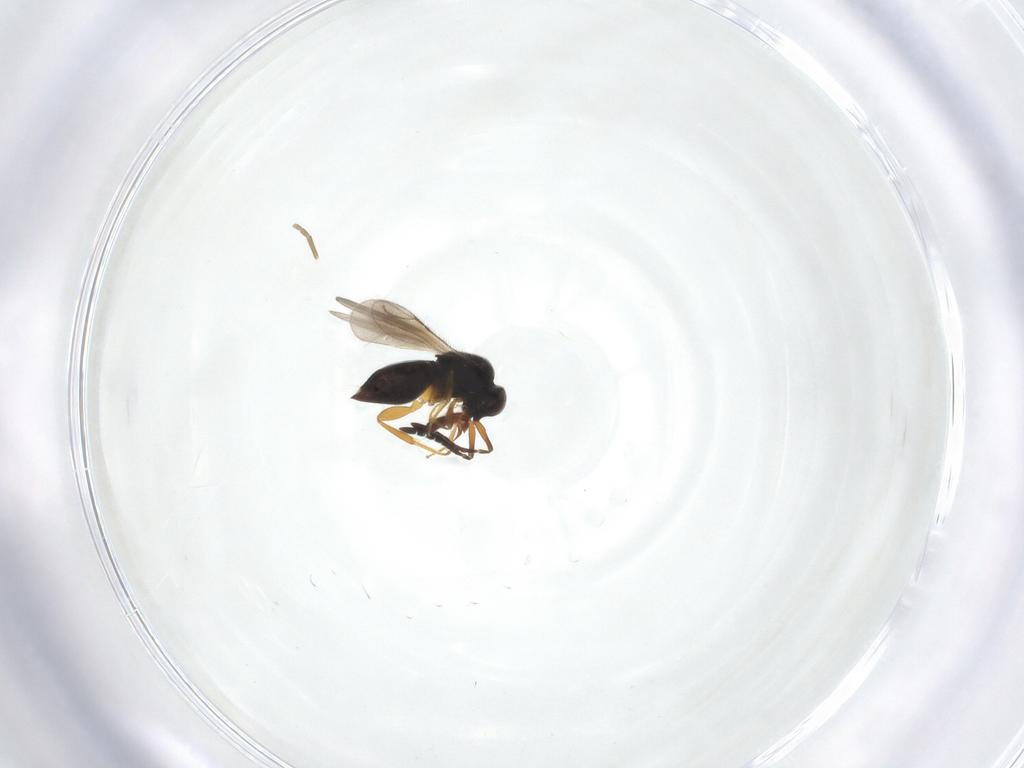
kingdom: Animalia
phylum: Arthropoda
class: Insecta
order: Hymenoptera
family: Ceraphronidae
